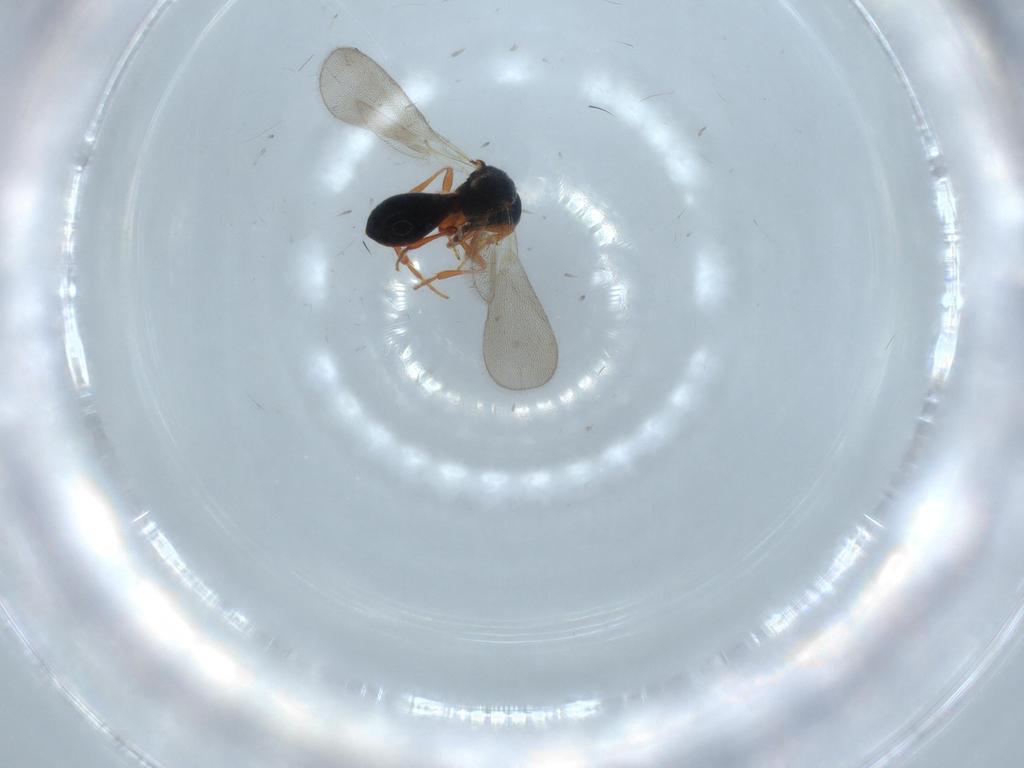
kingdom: Animalia
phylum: Arthropoda
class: Insecta
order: Hymenoptera
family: Platygastridae
